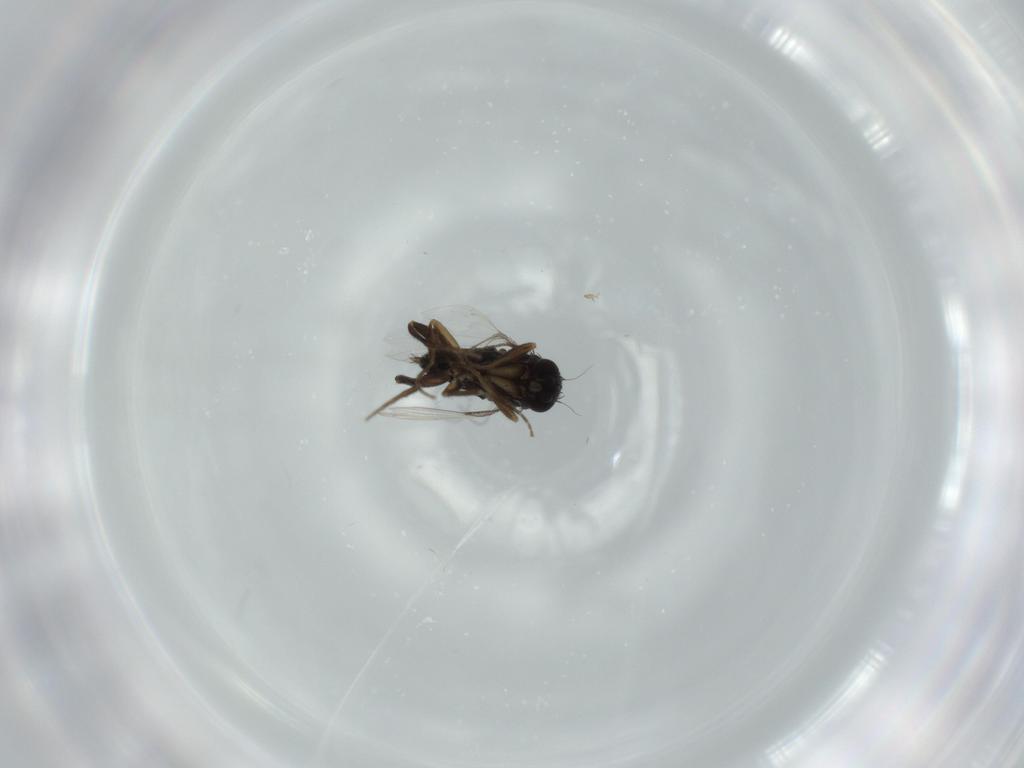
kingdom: Animalia
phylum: Arthropoda
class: Insecta
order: Diptera
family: Phoridae
